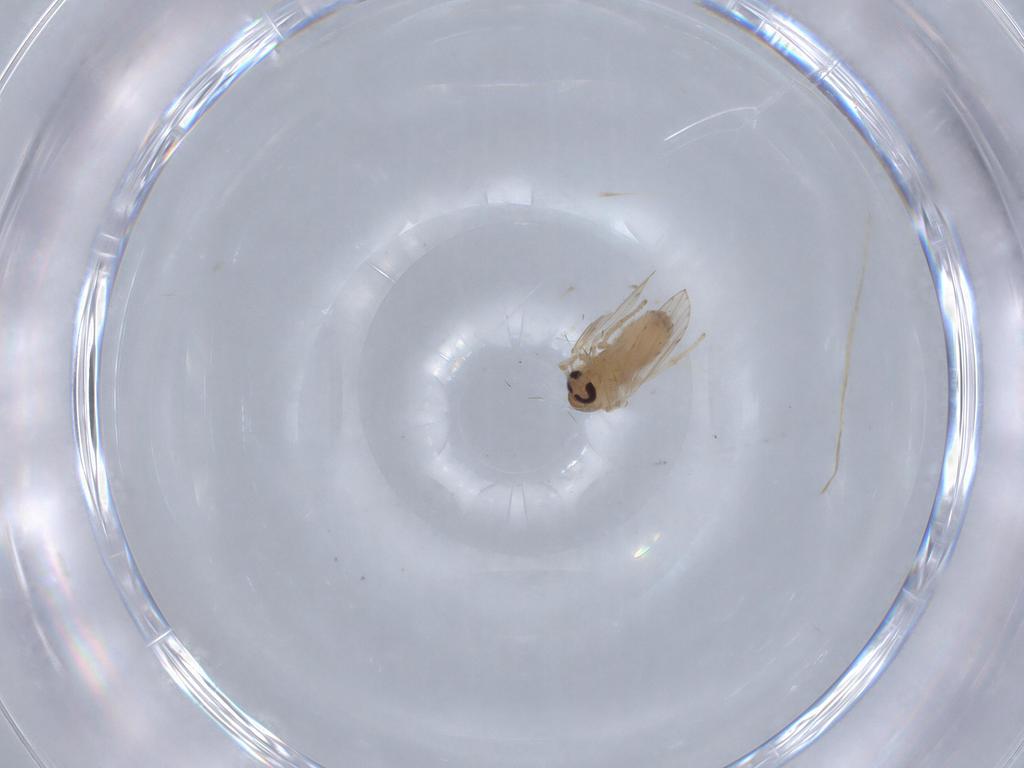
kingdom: Animalia
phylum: Arthropoda
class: Insecta
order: Diptera
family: Psychodidae
